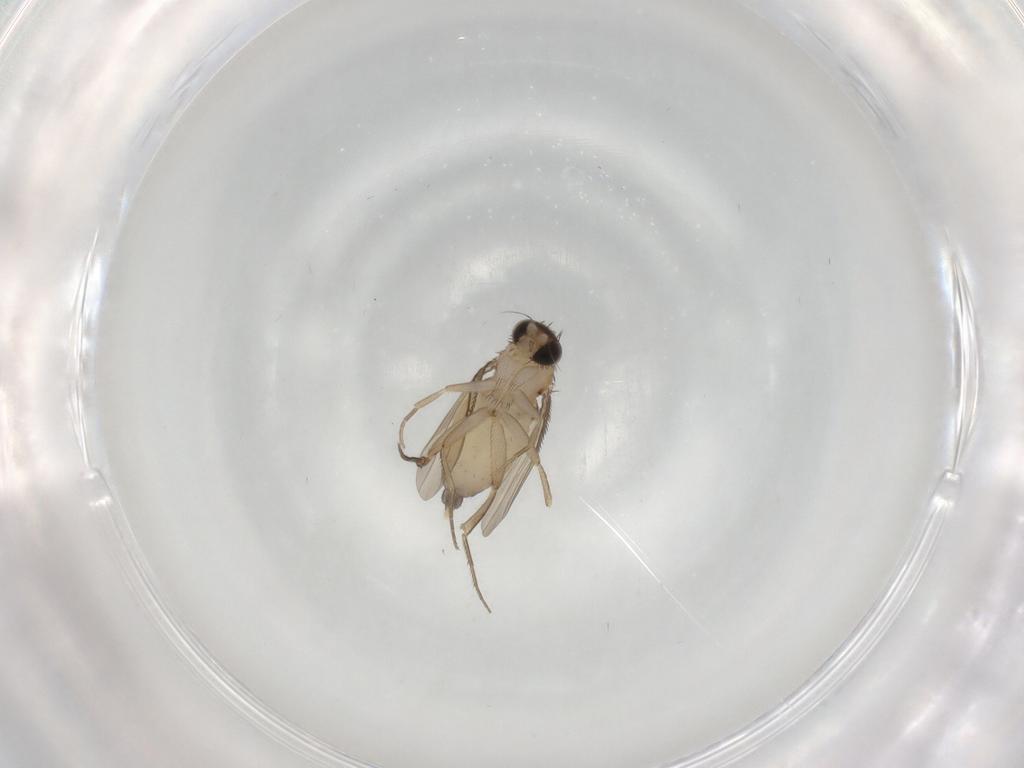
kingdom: Animalia
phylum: Arthropoda
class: Insecta
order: Diptera
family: Phoridae
